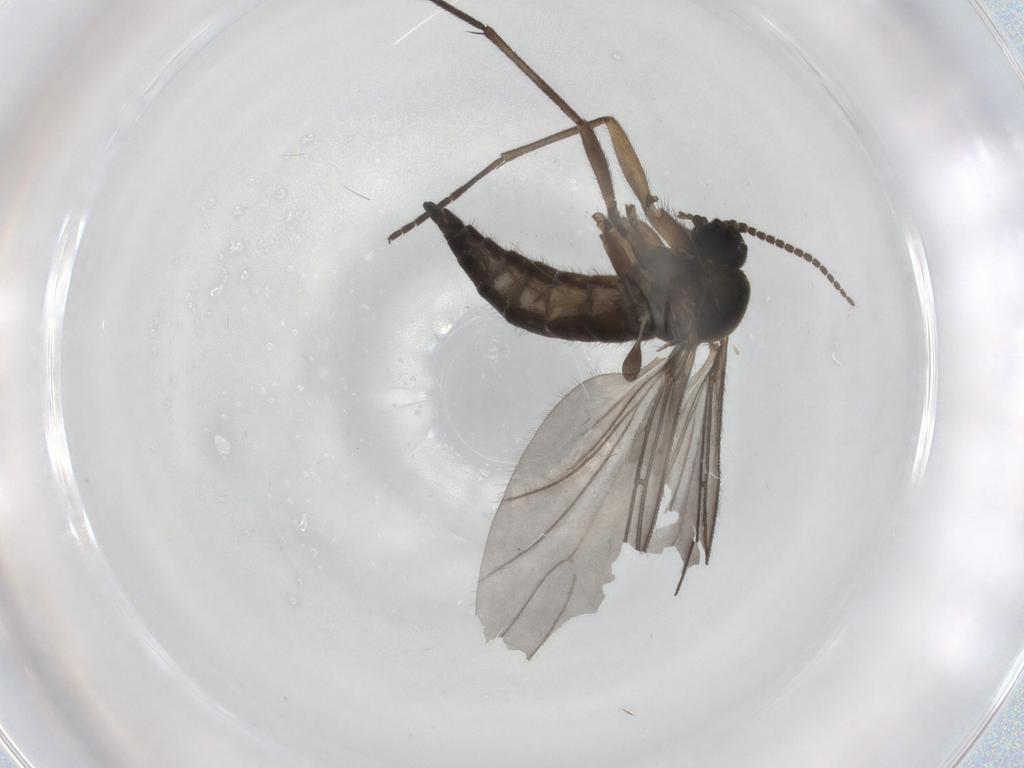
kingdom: Animalia
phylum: Arthropoda
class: Insecta
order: Diptera
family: Sciaridae
